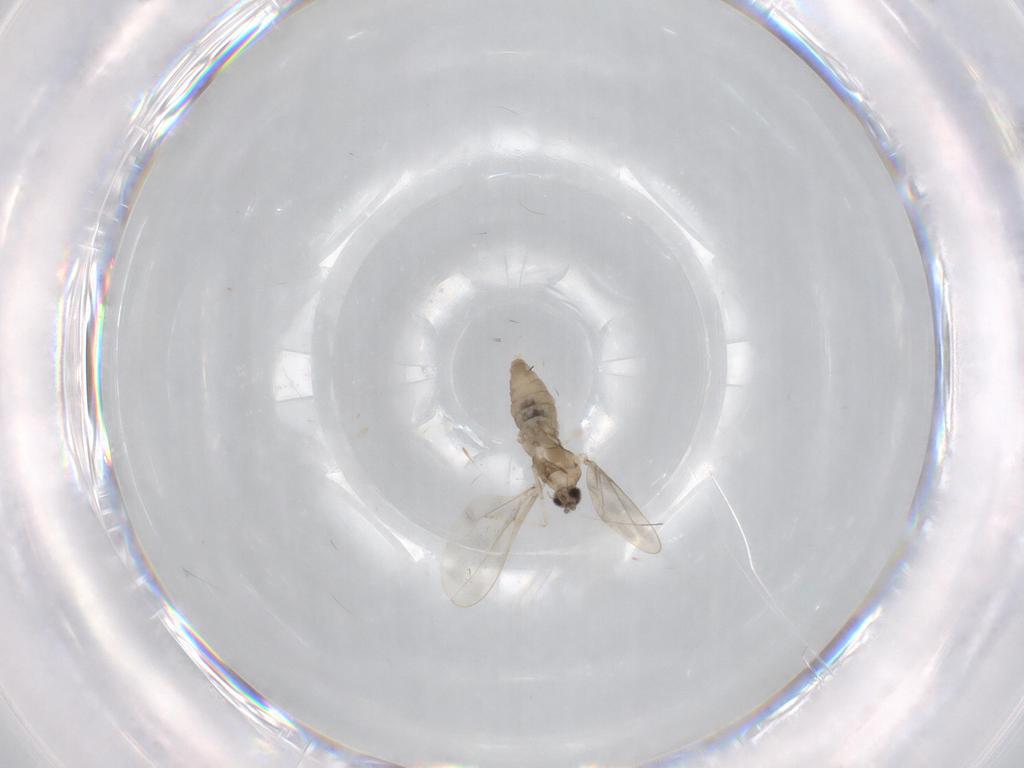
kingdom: Animalia
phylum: Arthropoda
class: Insecta
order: Diptera
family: Cecidomyiidae
